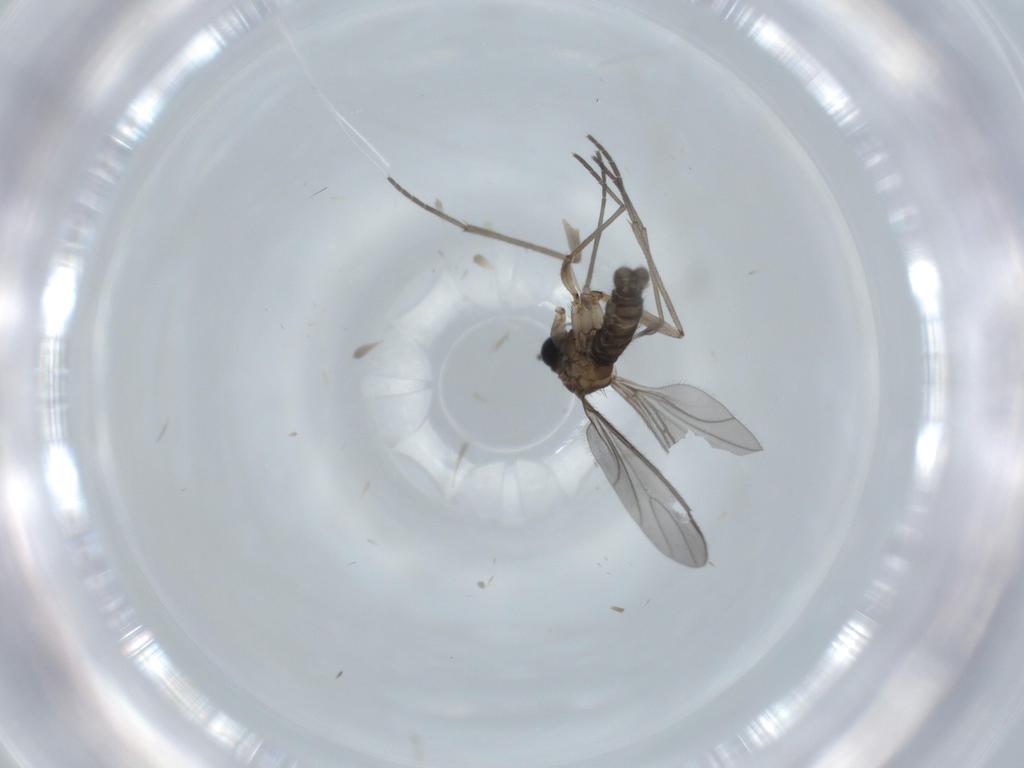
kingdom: Animalia
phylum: Arthropoda
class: Insecta
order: Diptera
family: Sciaridae
